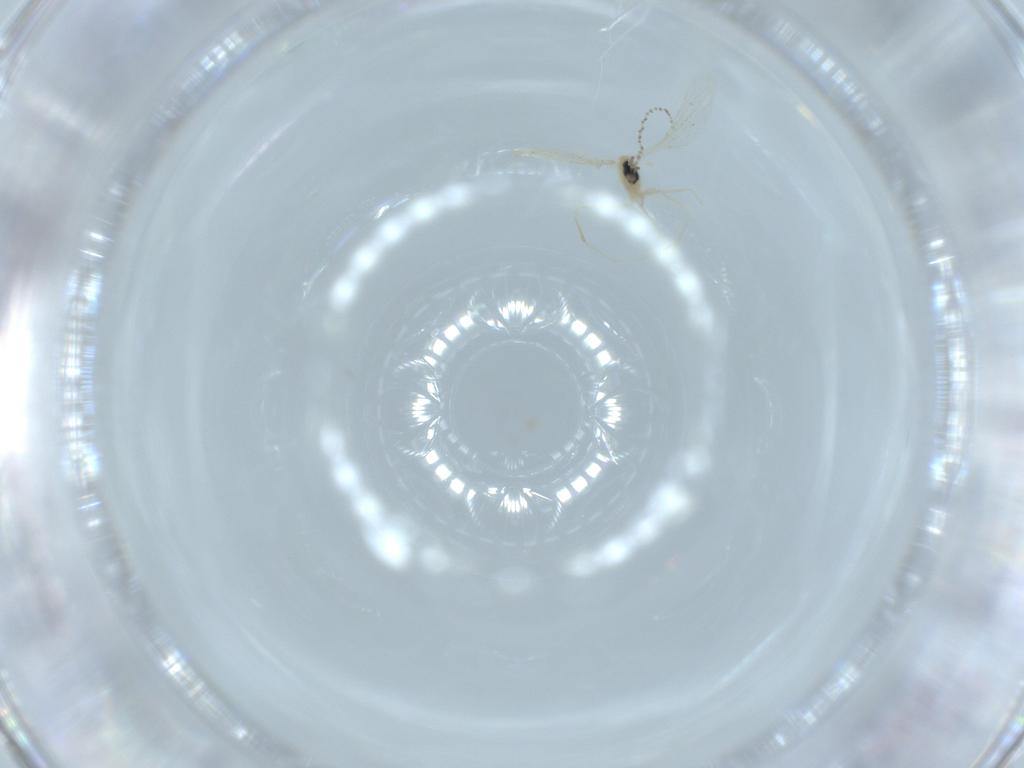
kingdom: Animalia
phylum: Arthropoda
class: Insecta
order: Diptera
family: Cecidomyiidae
